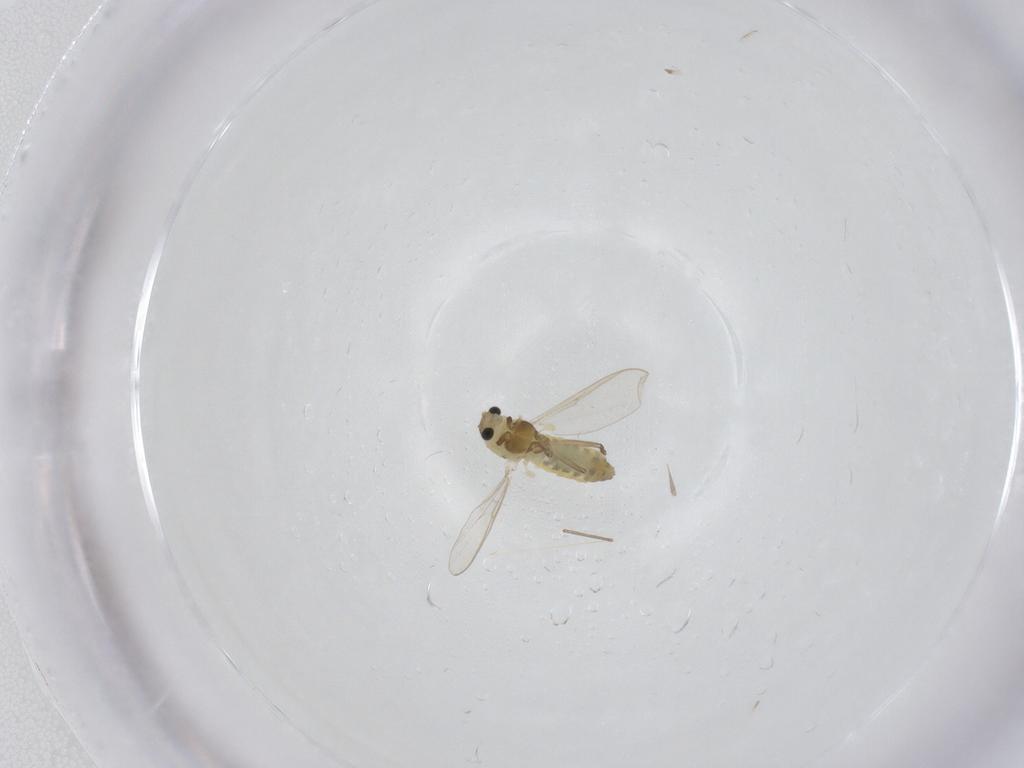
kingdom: Animalia
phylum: Arthropoda
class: Insecta
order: Diptera
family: Chironomidae
